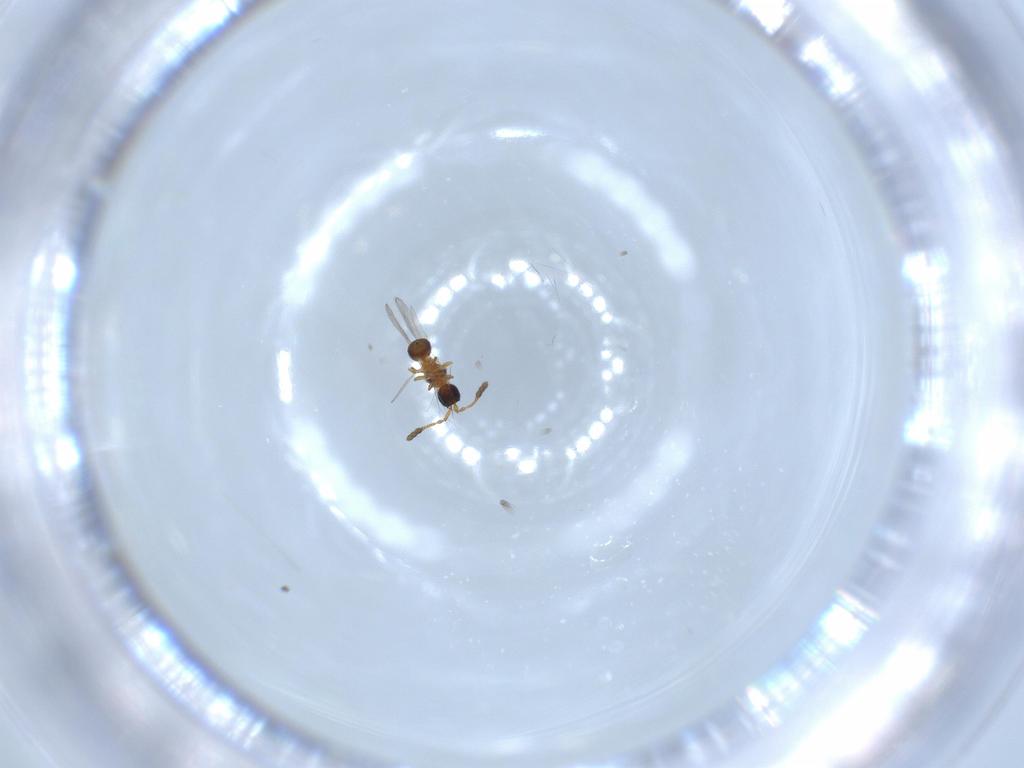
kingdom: Animalia
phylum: Arthropoda
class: Insecta
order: Hymenoptera
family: Diapriidae
